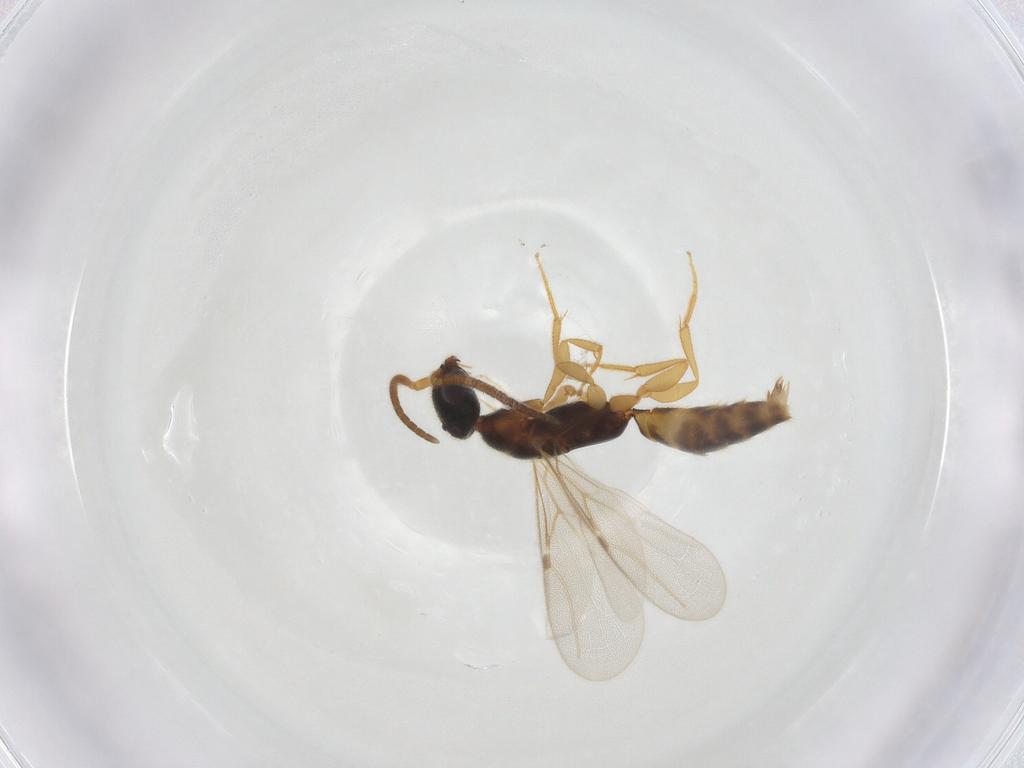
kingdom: Animalia
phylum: Arthropoda
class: Insecta
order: Hymenoptera
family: Bethylidae
